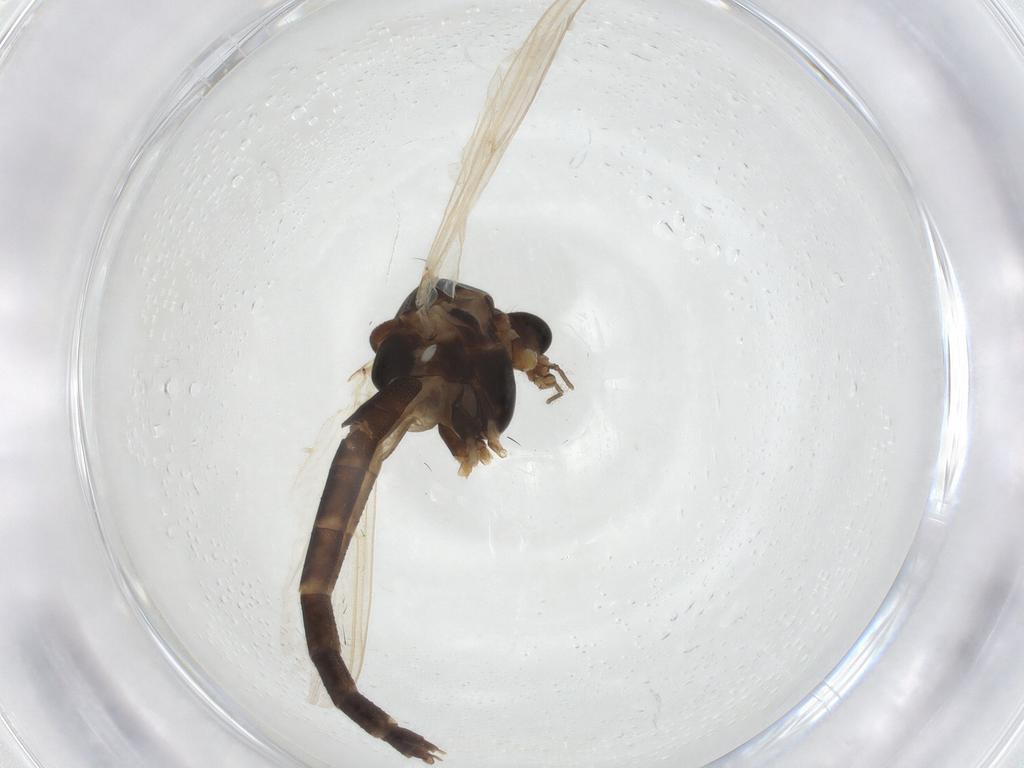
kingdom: Animalia
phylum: Arthropoda
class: Insecta
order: Diptera
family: Chironomidae
